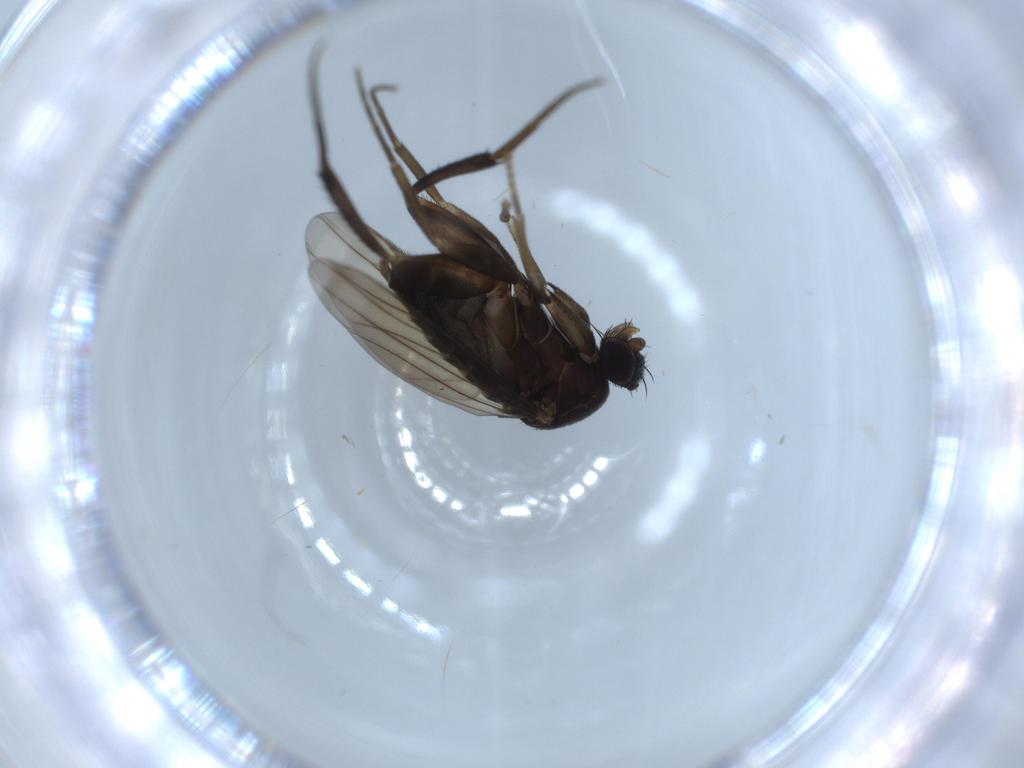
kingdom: Animalia
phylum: Arthropoda
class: Insecta
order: Diptera
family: Phoridae
